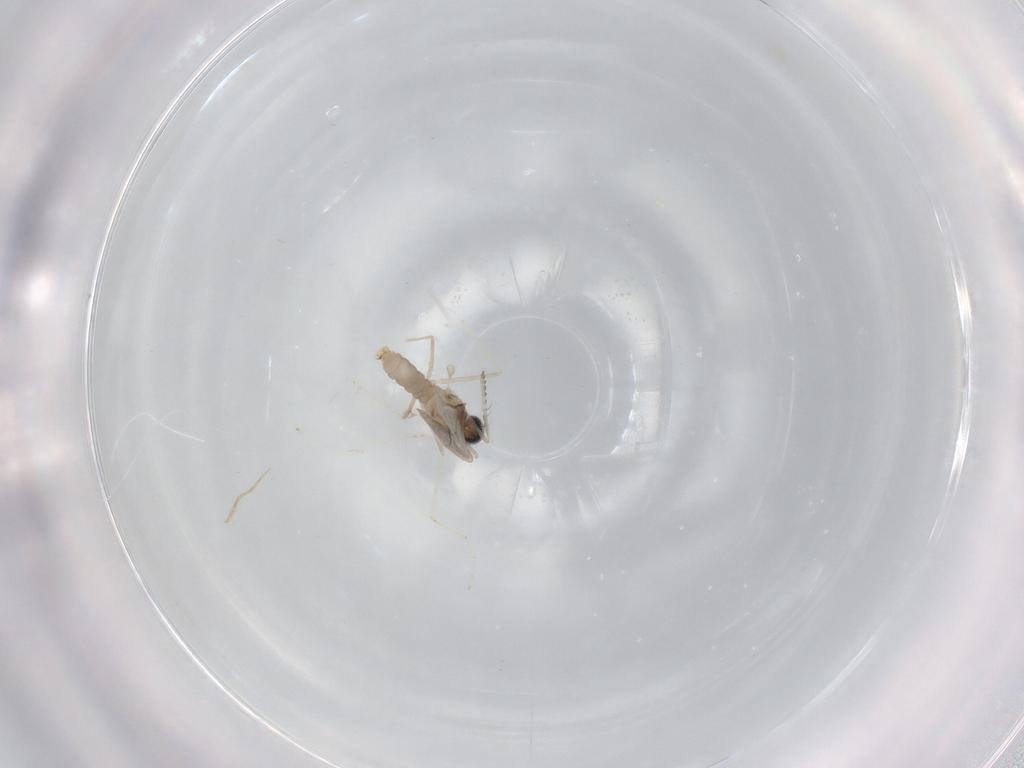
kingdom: Animalia
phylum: Arthropoda
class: Insecta
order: Diptera
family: Cecidomyiidae
